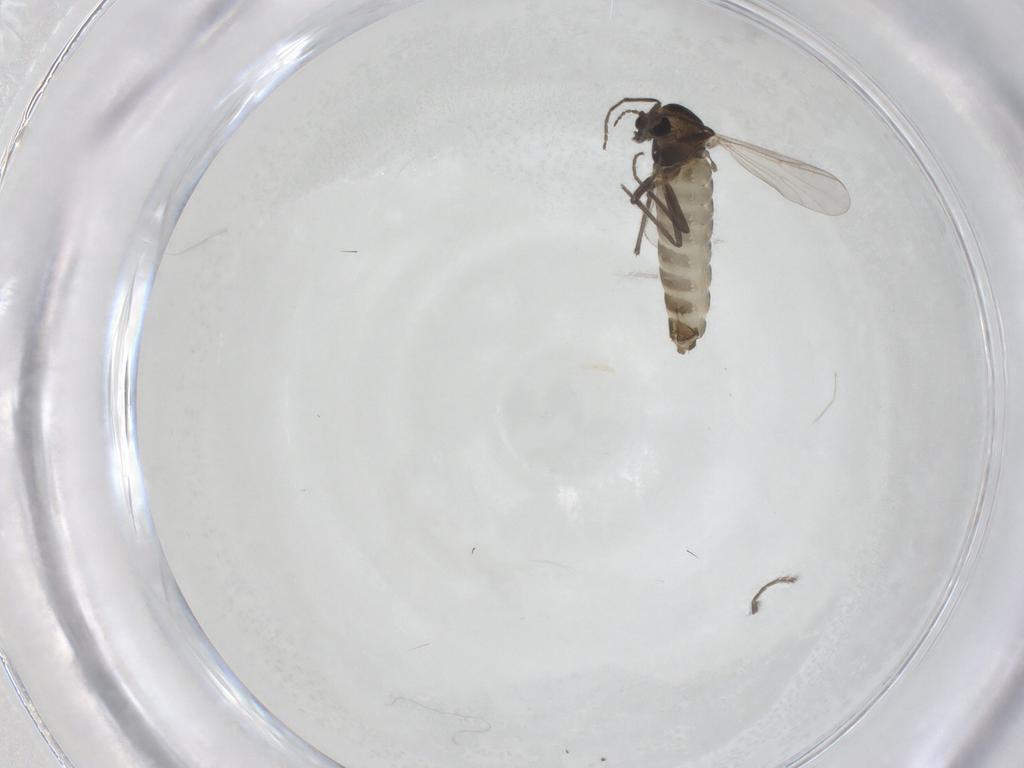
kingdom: Animalia
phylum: Arthropoda
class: Insecta
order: Diptera
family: Chironomidae
